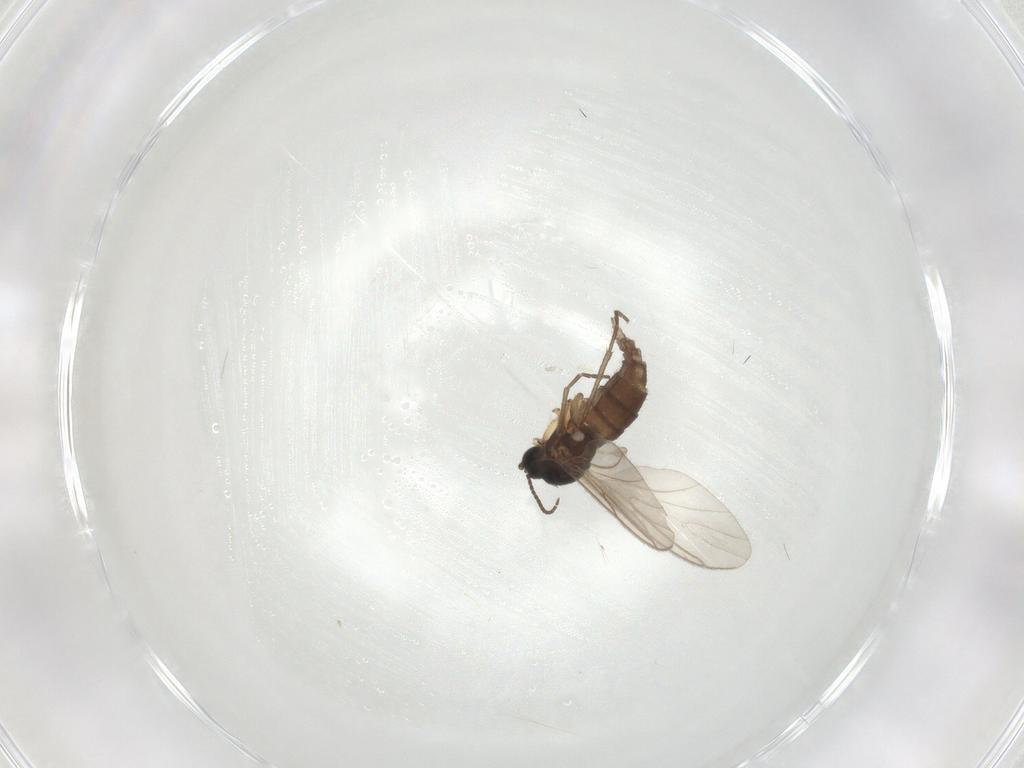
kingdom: Animalia
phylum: Arthropoda
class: Insecta
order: Diptera
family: Sciaridae
